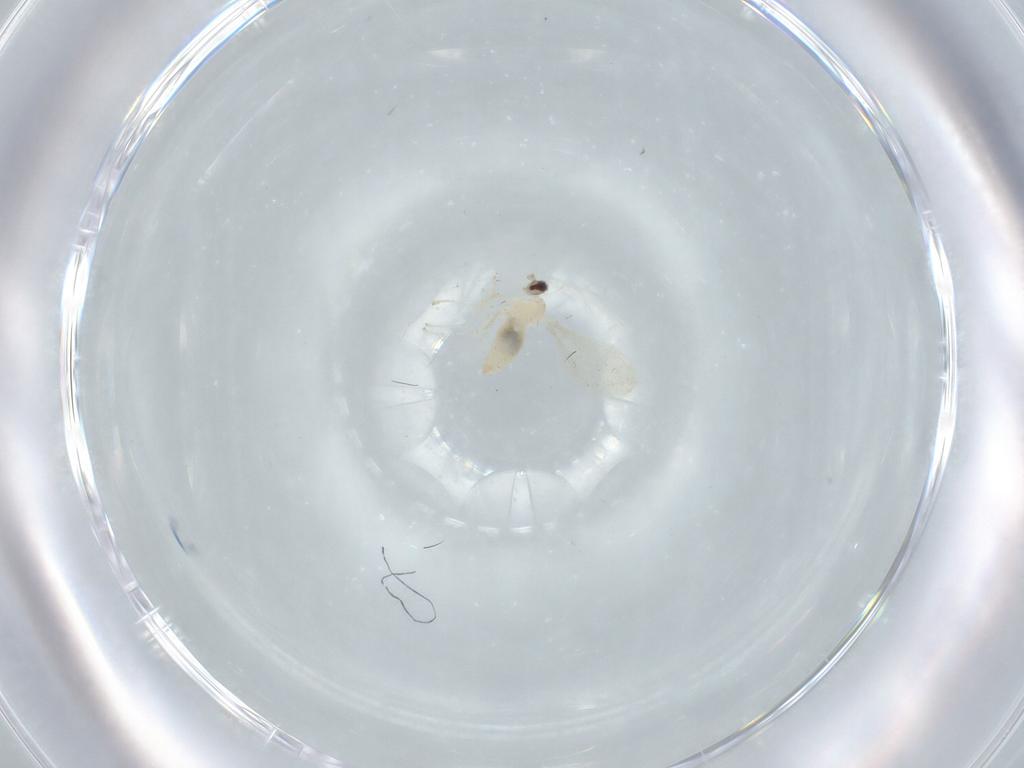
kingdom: Animalia
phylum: Arthropoda
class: Insecta
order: Diptera
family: Cecidomyiidae
